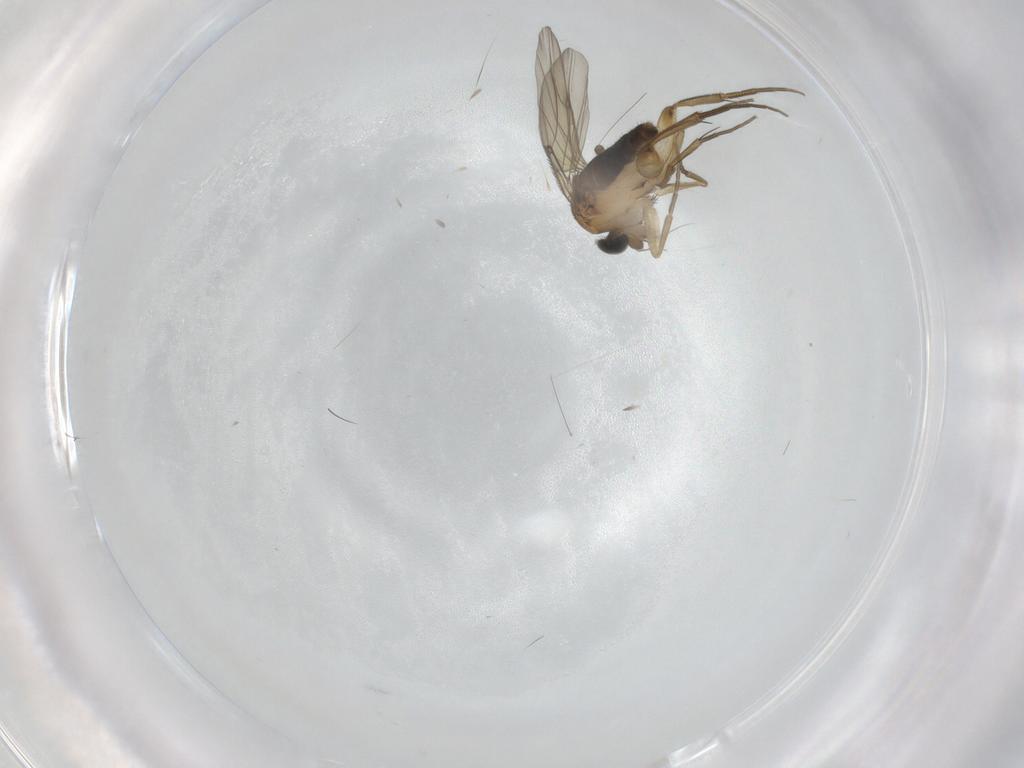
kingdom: Animalia
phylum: Arthropoda
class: Insecta
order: Diptera
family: Phoridae
